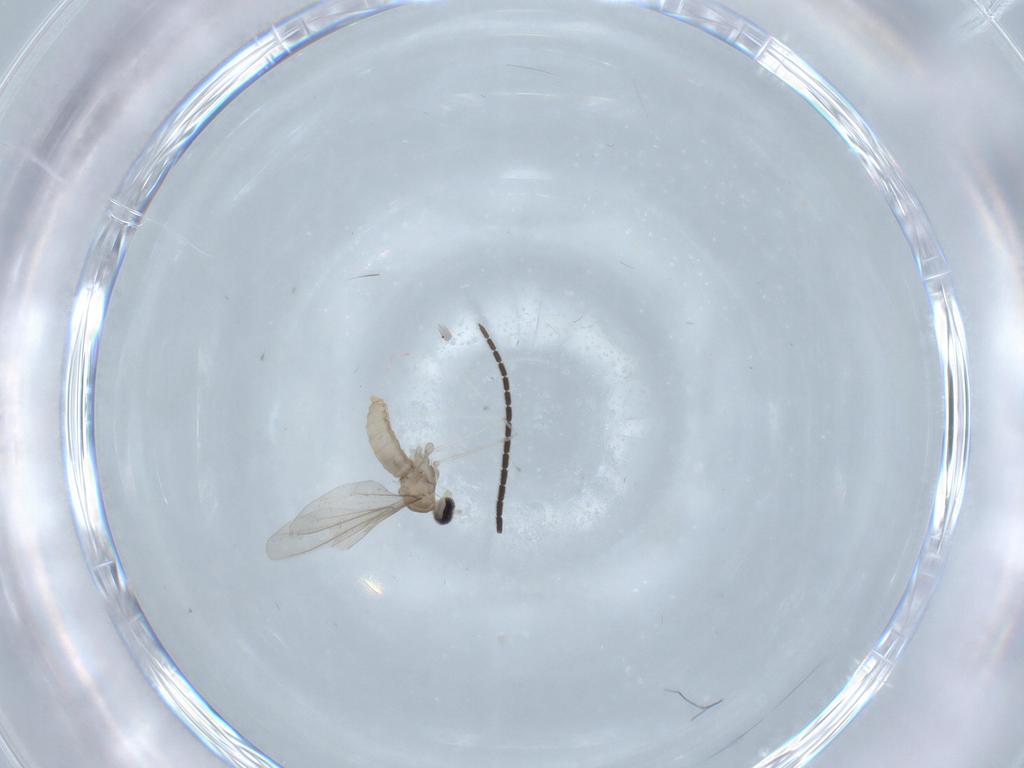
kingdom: Animalia
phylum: Arthropoda
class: Insecta
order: Diptera
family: Cecidomyiidae
